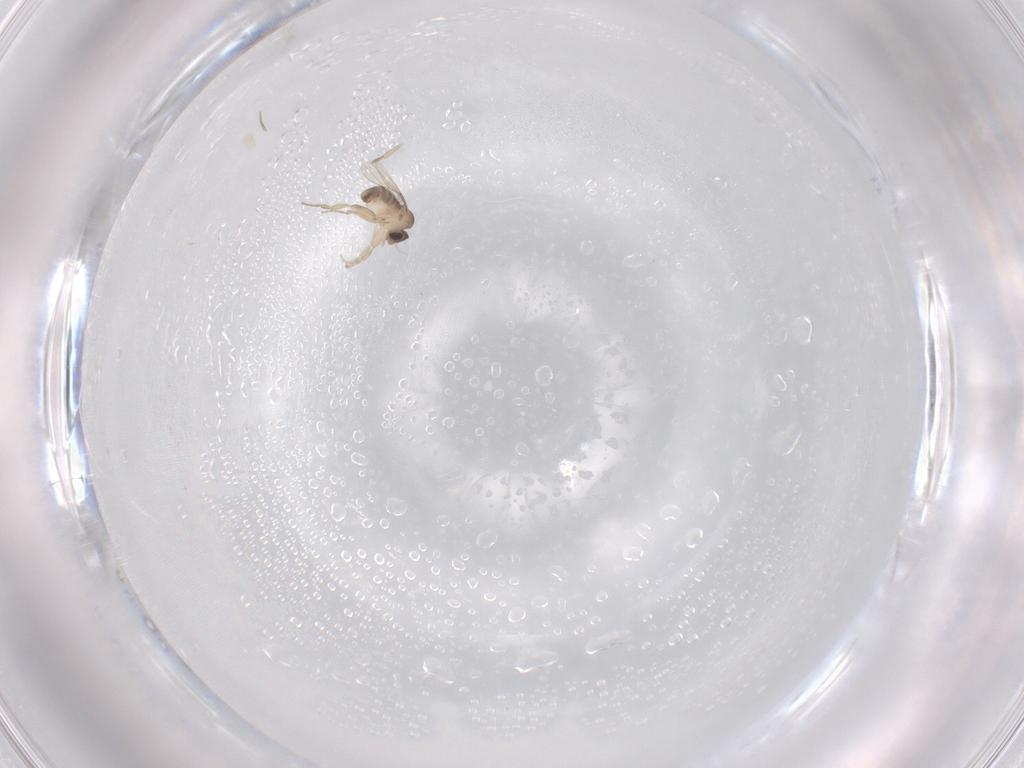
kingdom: Animalia
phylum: Arthropoda
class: Insecta
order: Diptera
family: Phoridae
